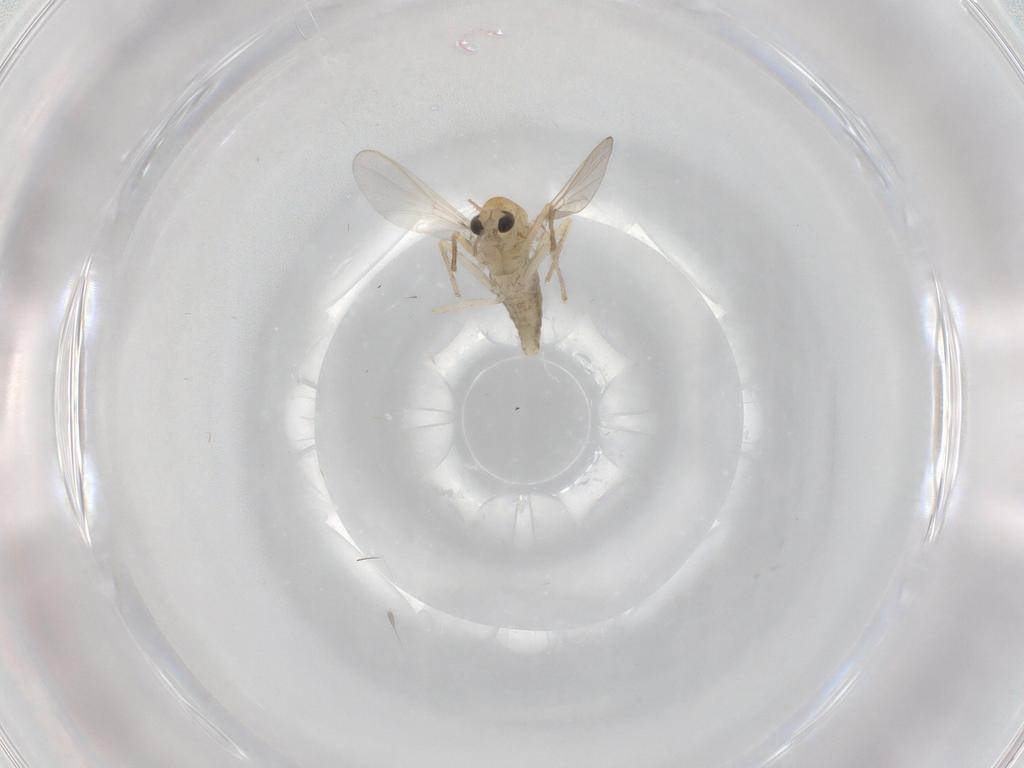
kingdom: Animalia
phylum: Arthropoda
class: Insecta
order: Diptera
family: Chironomidae
